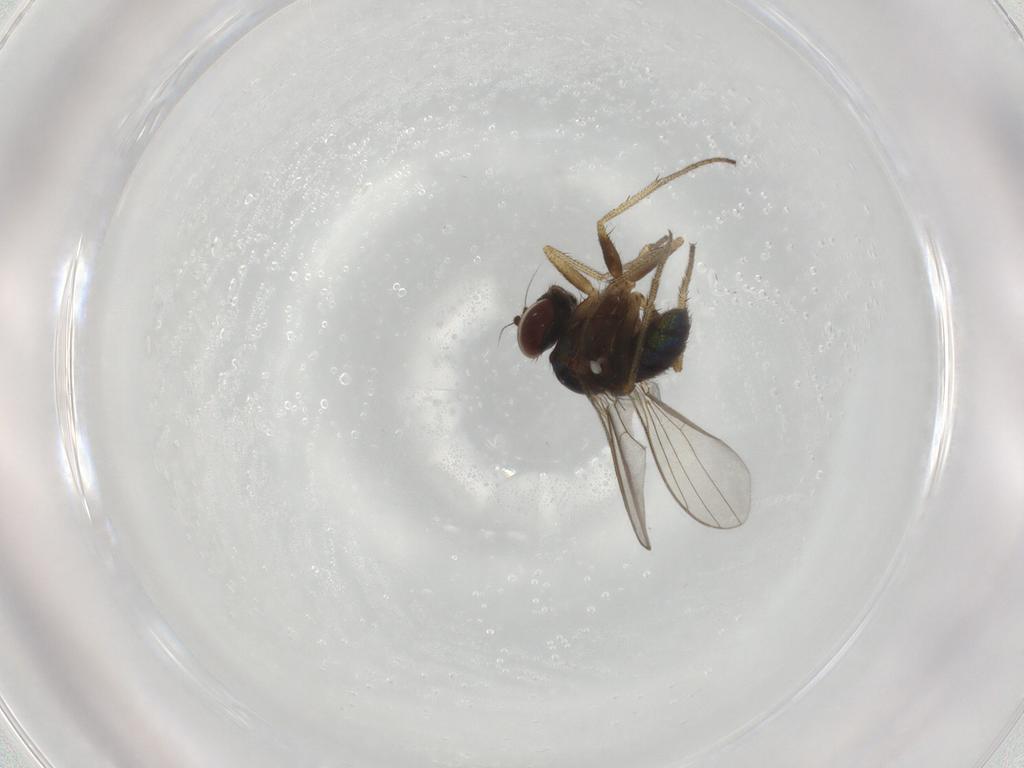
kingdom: Animalia
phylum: Arthropoda
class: Insecta
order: Diptera
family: Dolichopodidae
